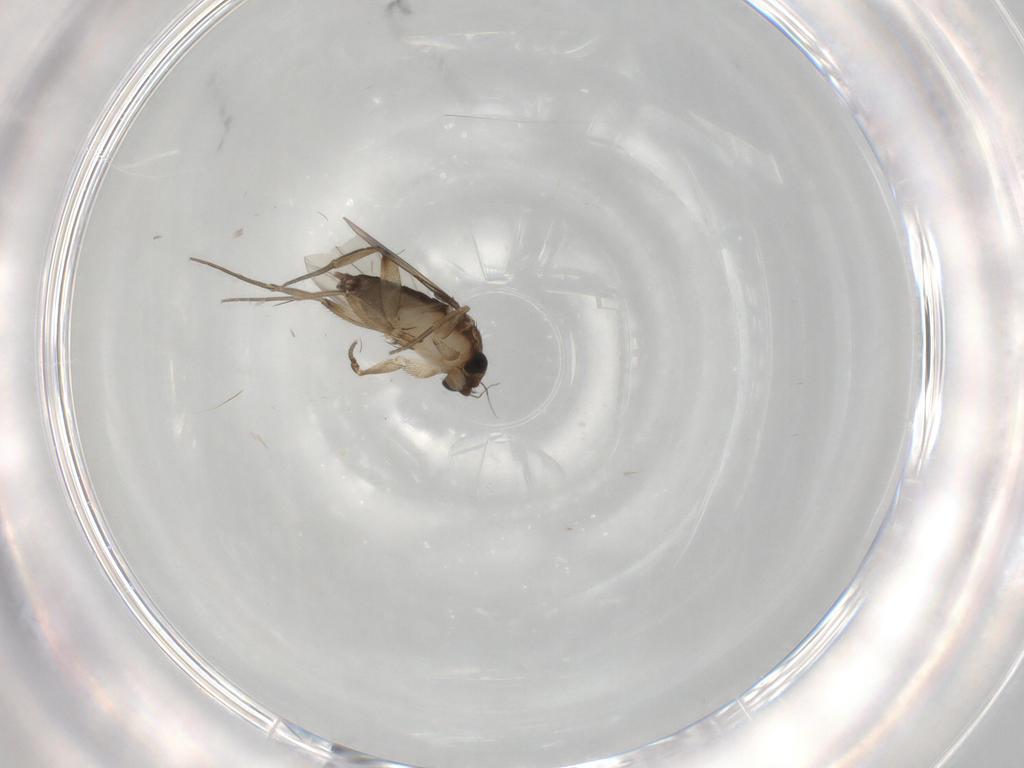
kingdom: Animalia
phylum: Arthropoda
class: Insecta
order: Diptera
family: Phoridae
